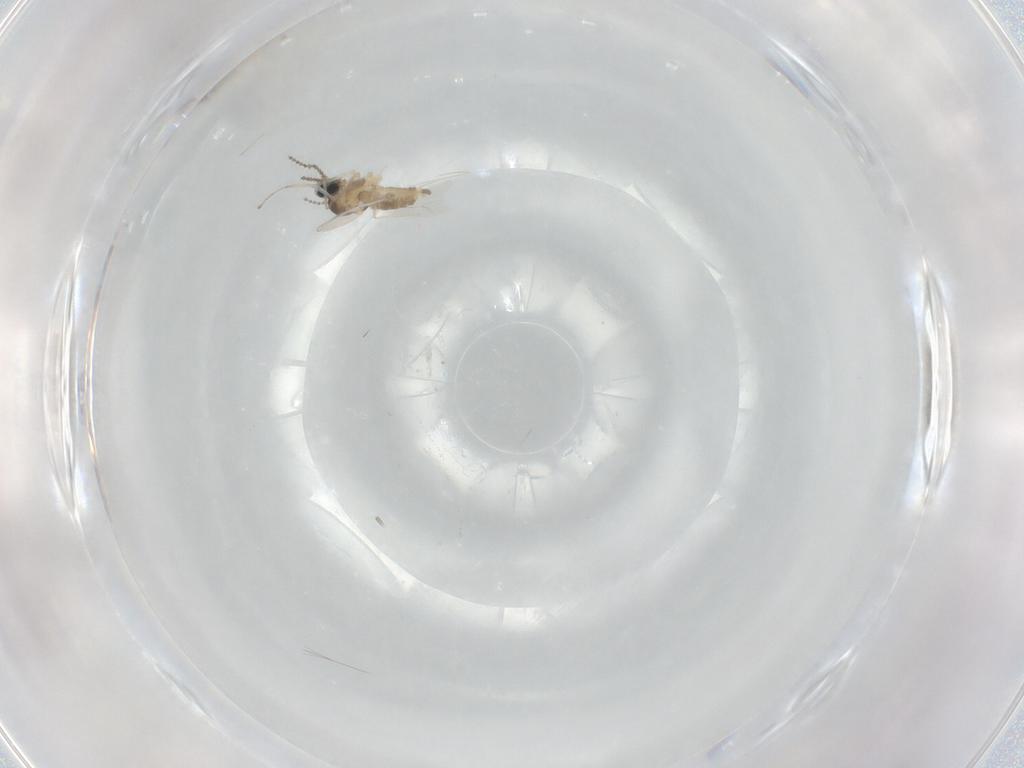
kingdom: Animalia
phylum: Arthropoda
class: Insecta
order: Diptera
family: Cecidomyiidae
